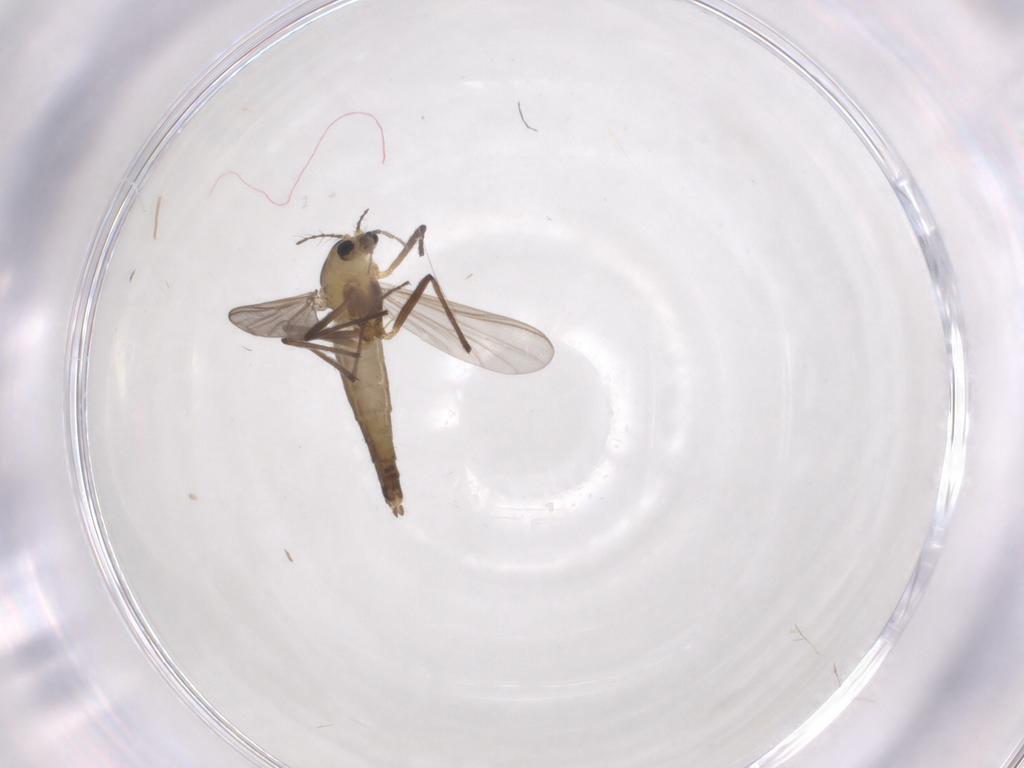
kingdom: Animalia
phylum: Arthropoda
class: Insecta
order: Diptera
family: Chironomidae
